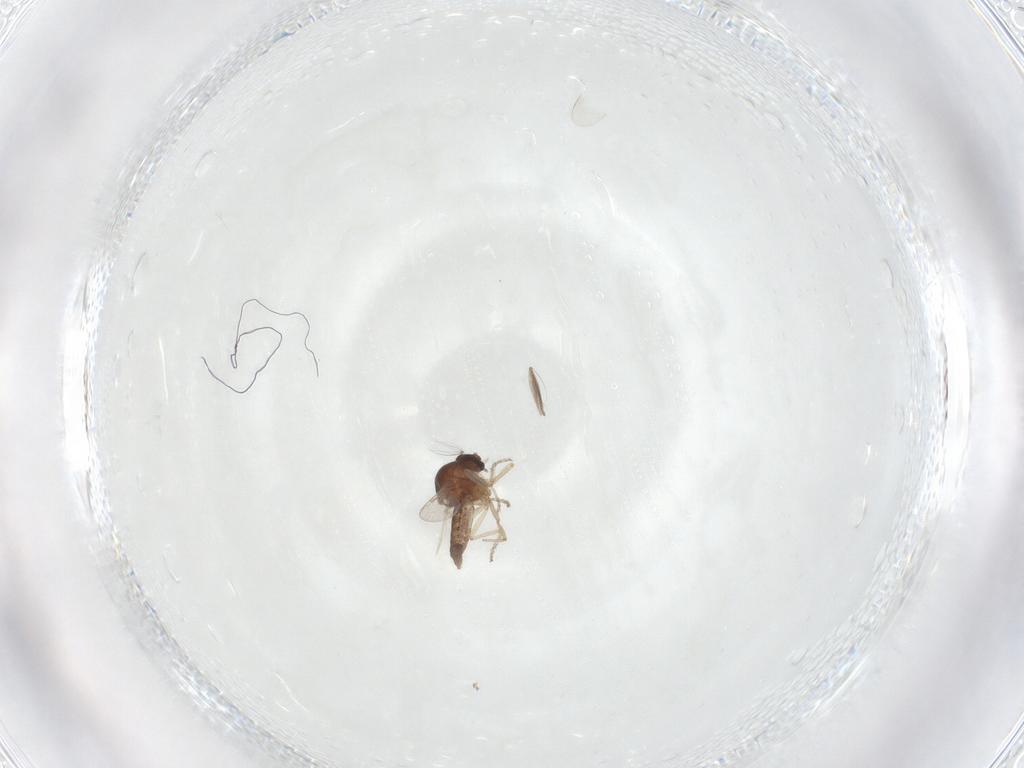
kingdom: Animalia
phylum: Arthropoda
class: Insecta
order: Diptera
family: Ceratopogonidae
